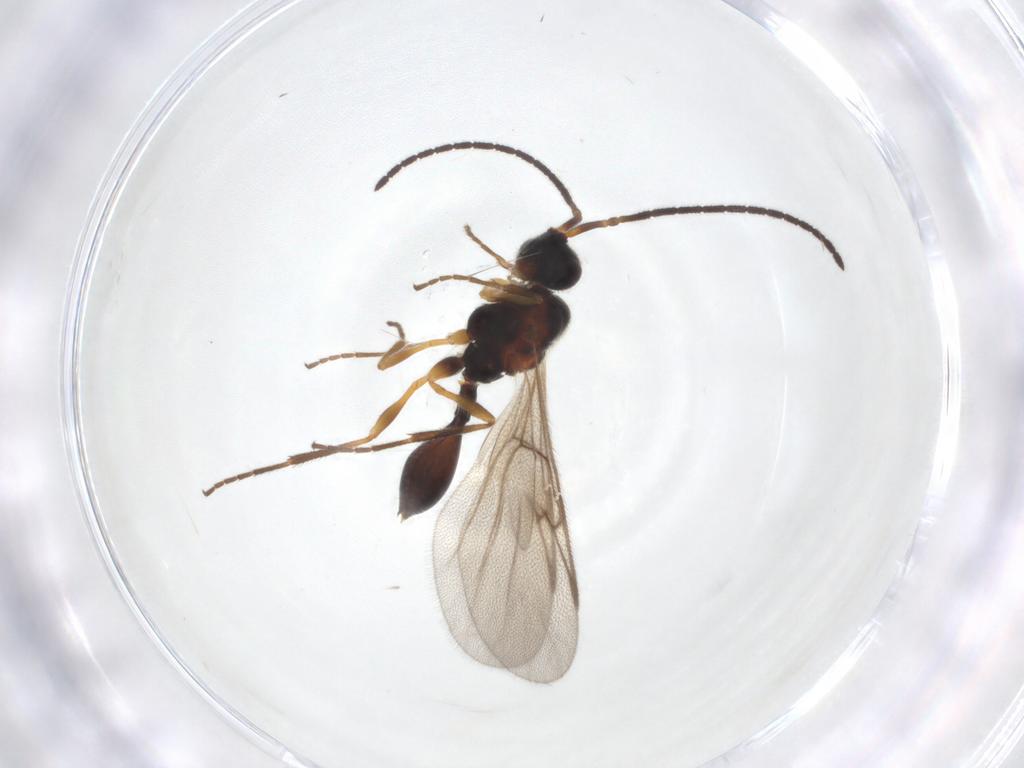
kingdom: Animalia
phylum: Arthropoda
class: Insecta
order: Hymenoptera
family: Diapriidae
